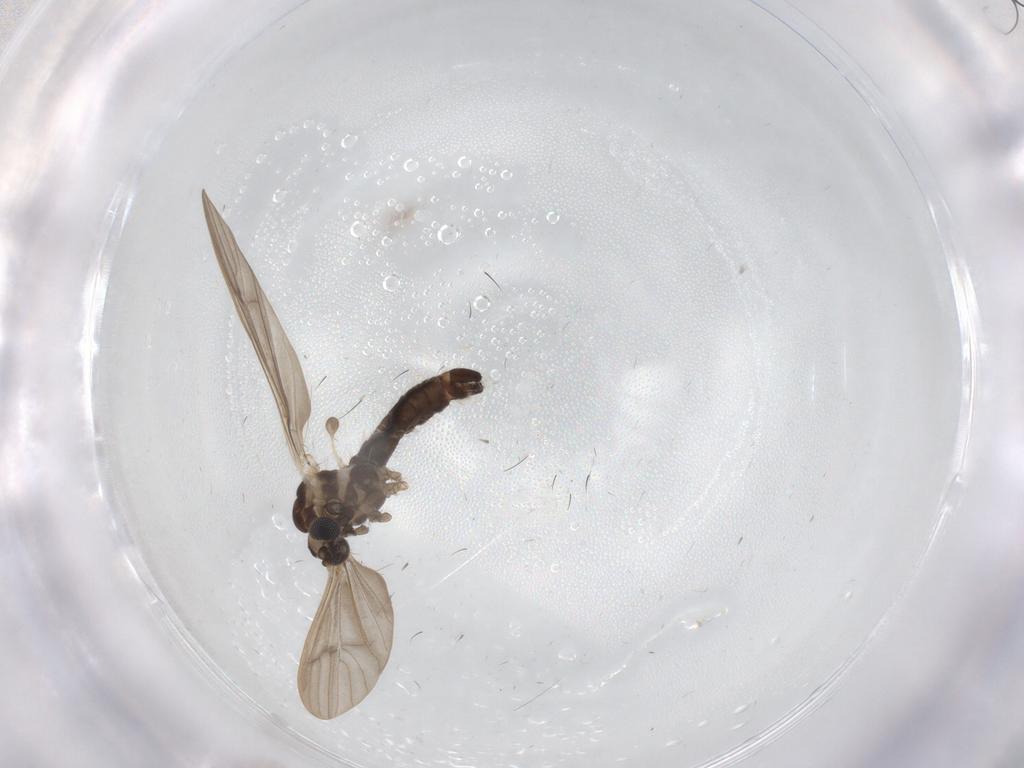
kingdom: Animalia
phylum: Arthropoda
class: Insecta
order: Diptera
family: Limoniidae
